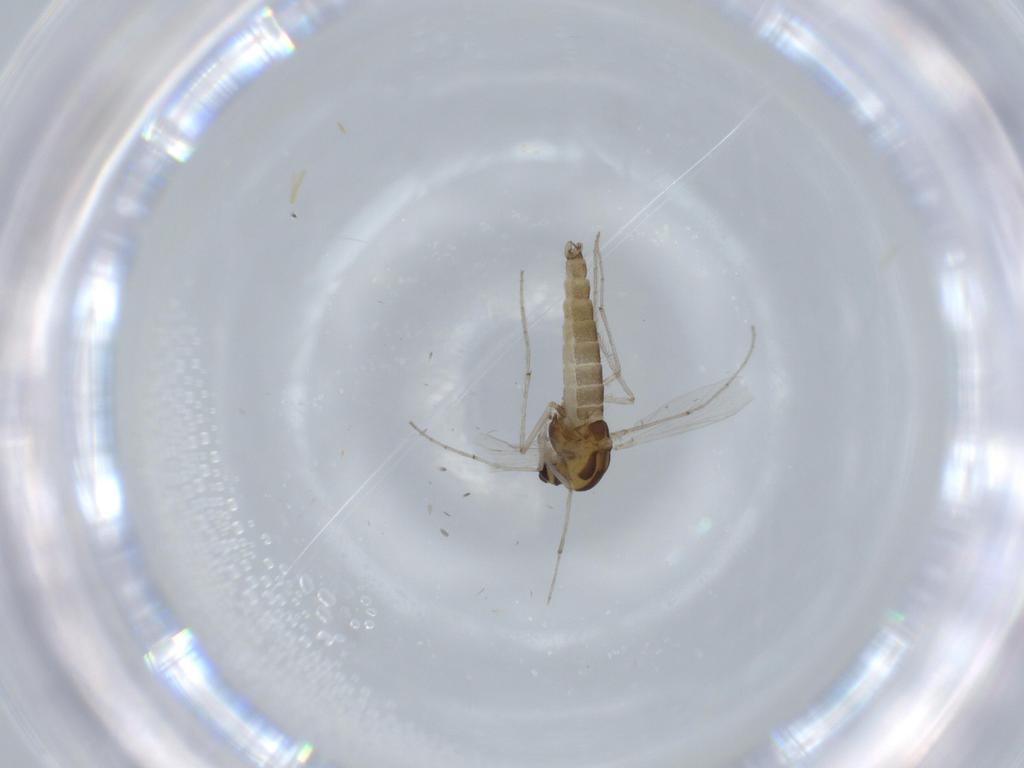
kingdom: Animalia
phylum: Arthropoda
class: Insecta
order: Diptera
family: Chironomidae
